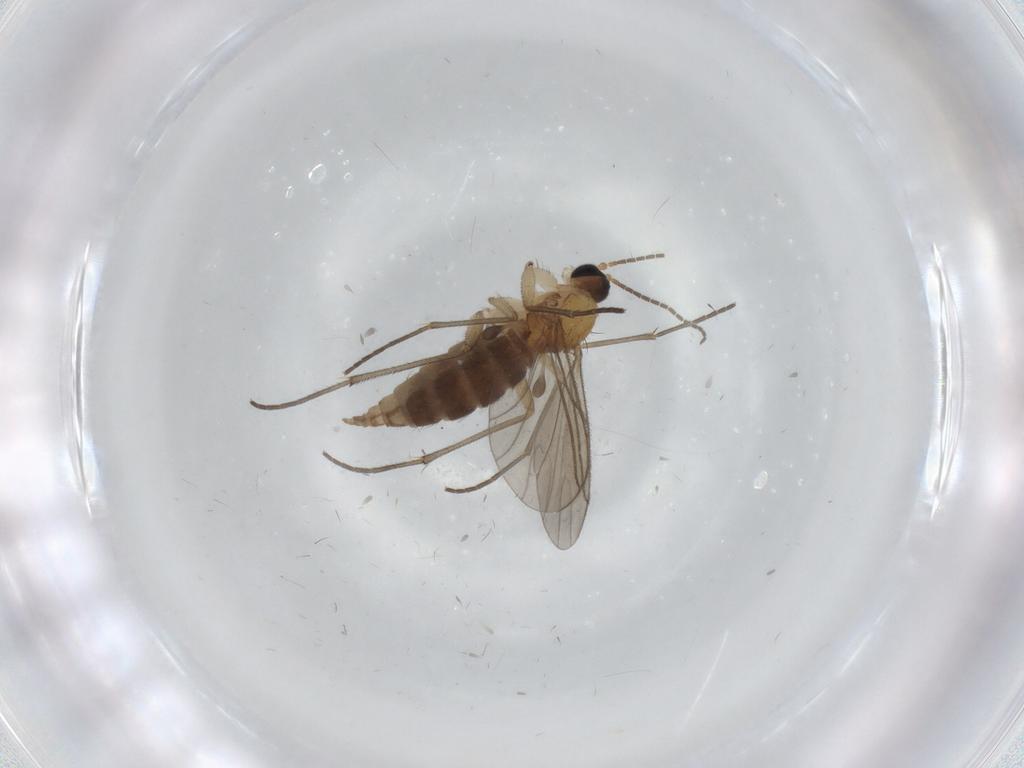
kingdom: Animalia
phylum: Arthropoda
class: Insecta
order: Diptera
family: Sciaridae
